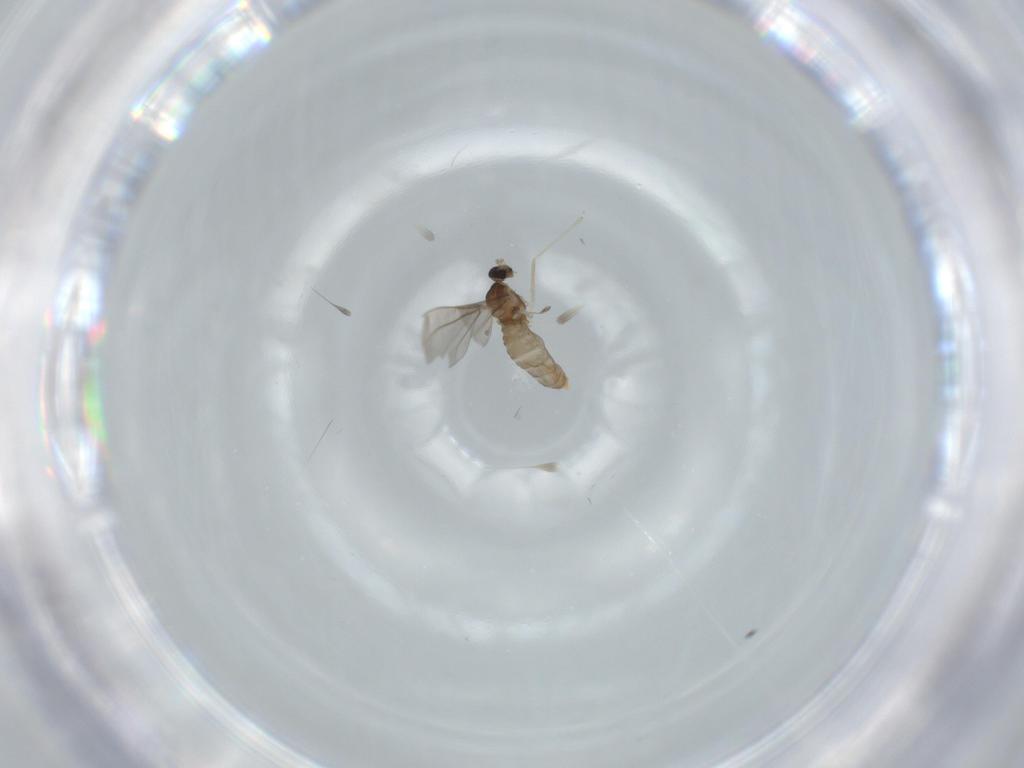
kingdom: Animalia
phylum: Arthropoda
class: Insecta
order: Diptera
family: Cecidomyiidae
